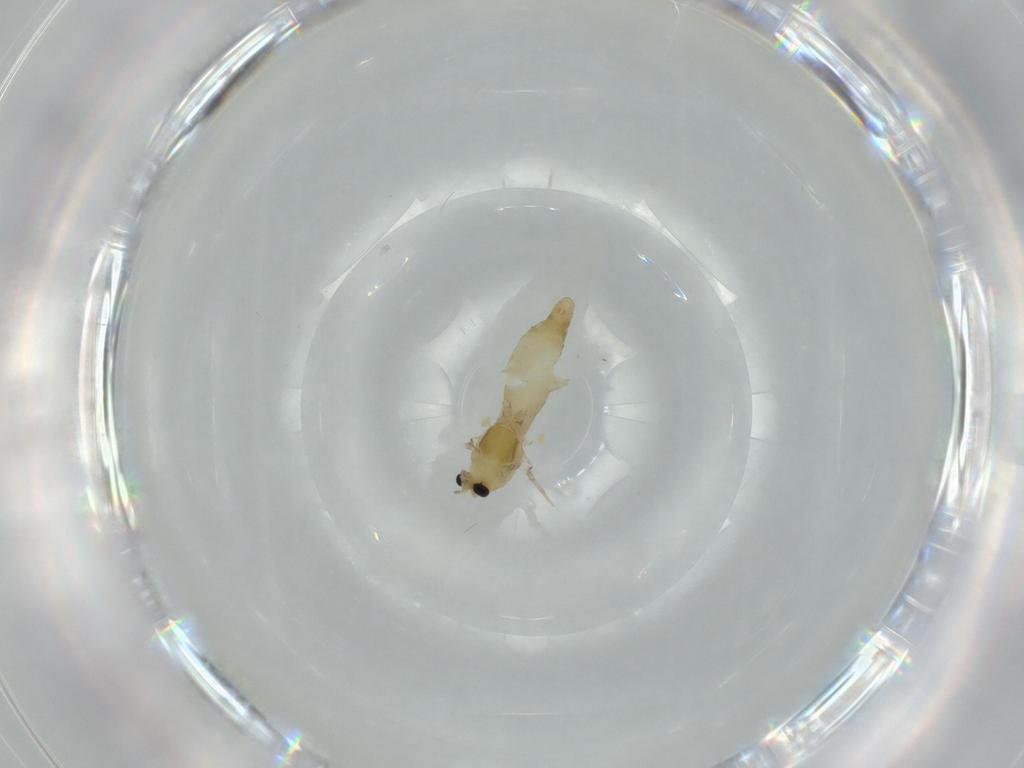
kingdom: Animalia
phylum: Arthropoda
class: Insecta
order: Diptera
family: Chironomidae
